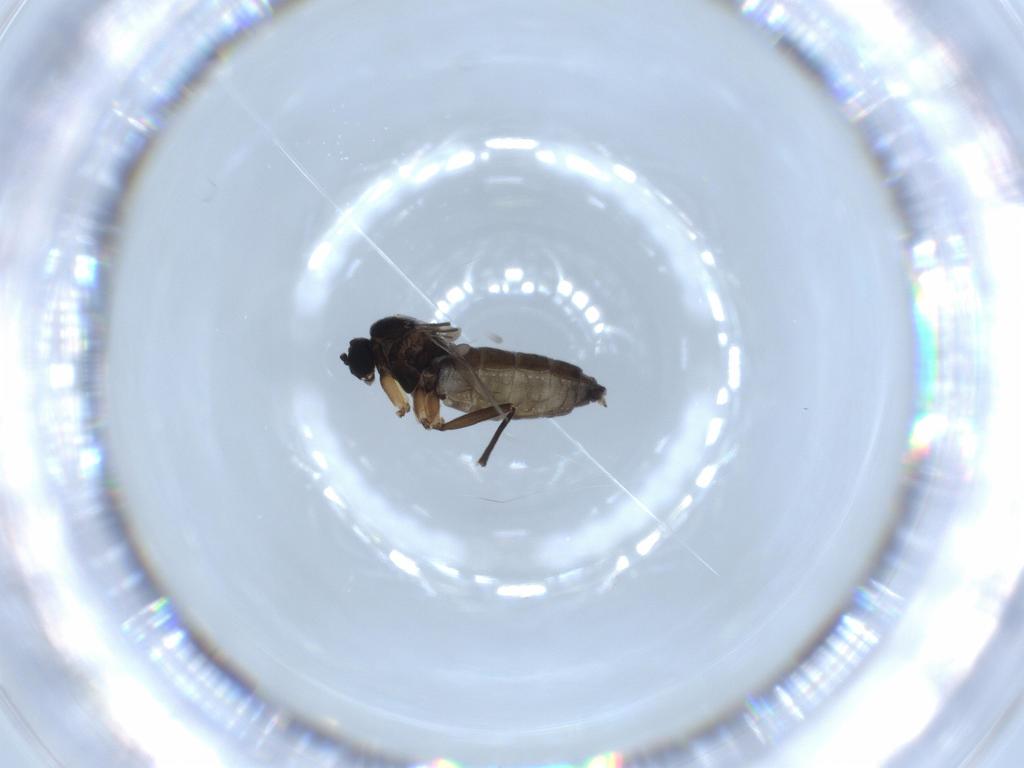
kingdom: Animalia
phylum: Arthropoda
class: Insecta
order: Diptera
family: Sciaridae
